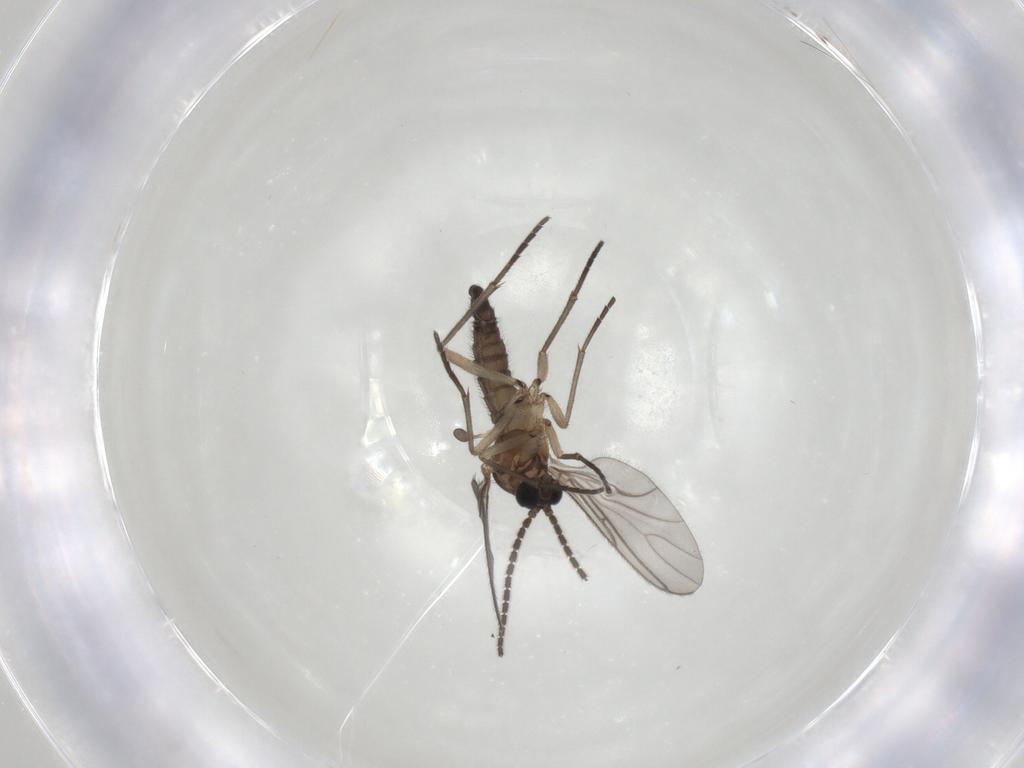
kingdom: Animalia
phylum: Arthropoda
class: Insecta
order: Diptera
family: Sciaridae
